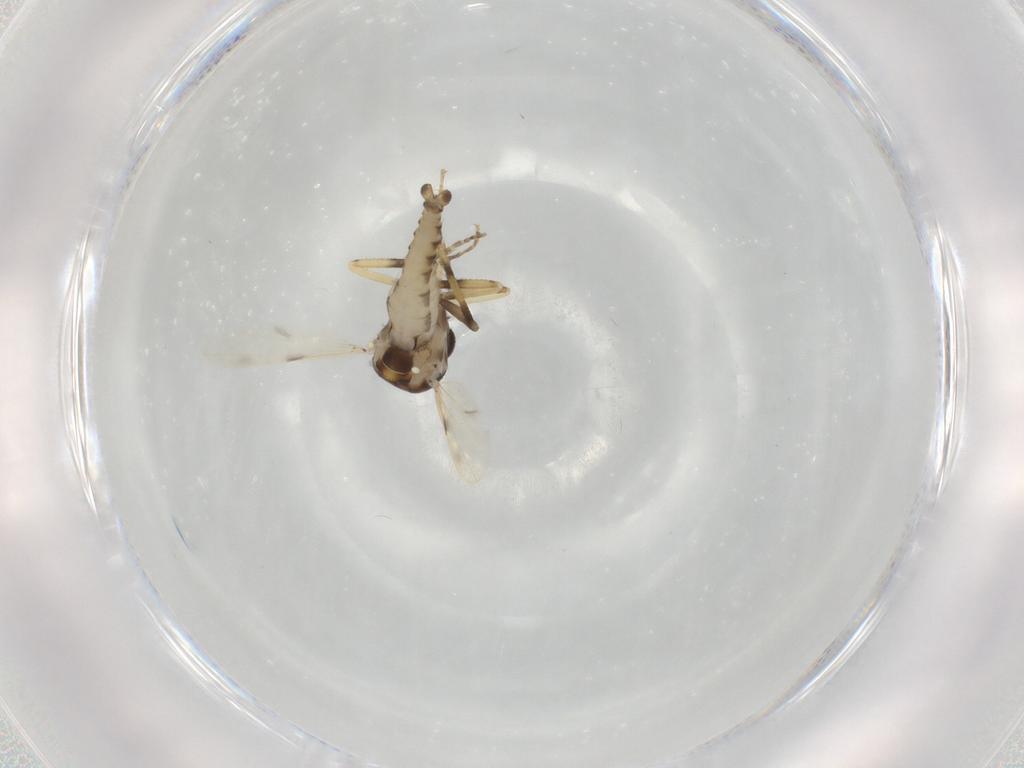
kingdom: Animalia
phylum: Arthropoda
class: Insecta
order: Diptera
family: Ceratopogonidae
